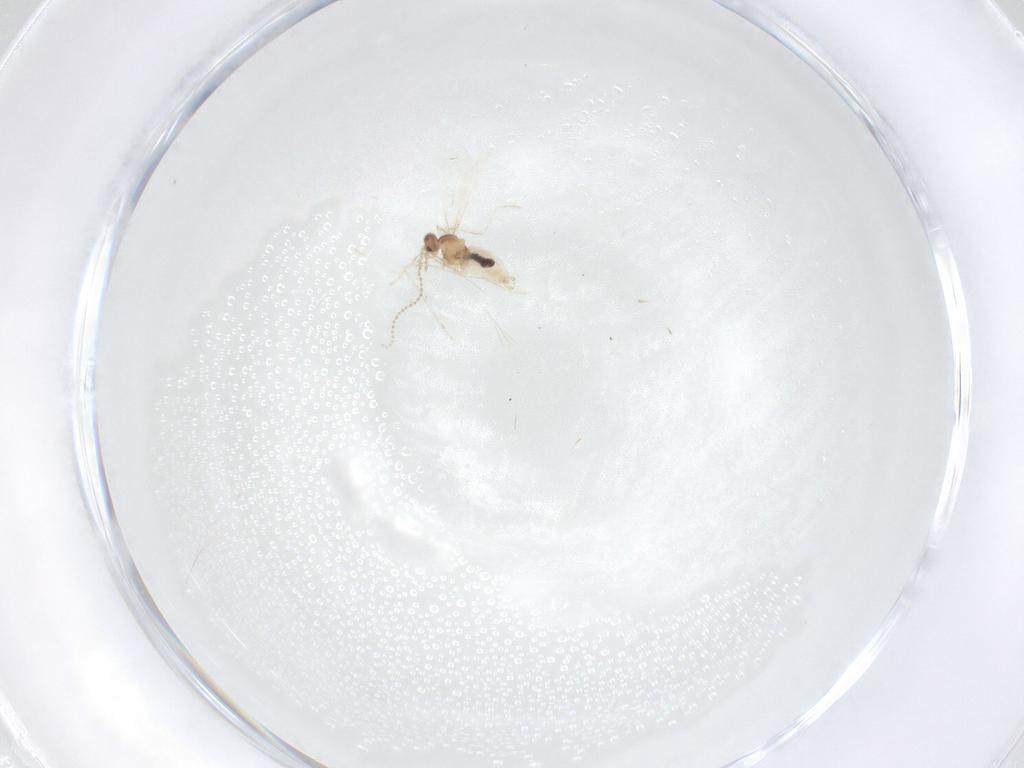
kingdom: Animalia
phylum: Arthropoda
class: Insecta
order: Diptera
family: Cecidomyiidae
